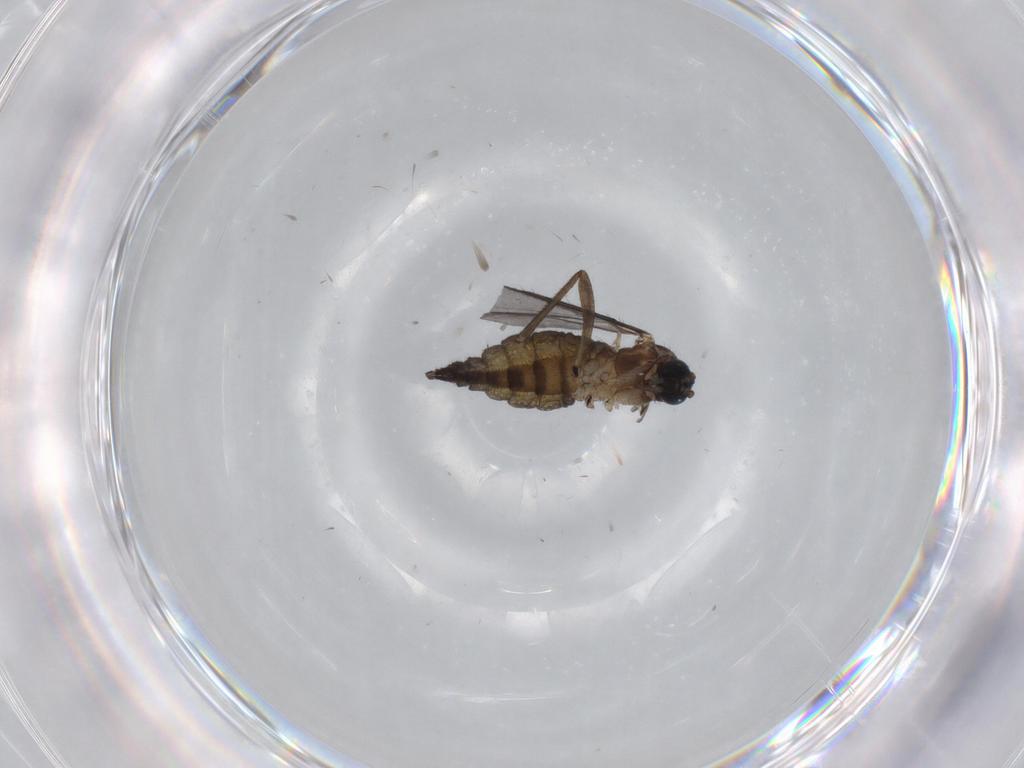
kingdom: Animalia
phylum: Arthropoda
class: Insecta
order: Diptera
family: Sciaridae
